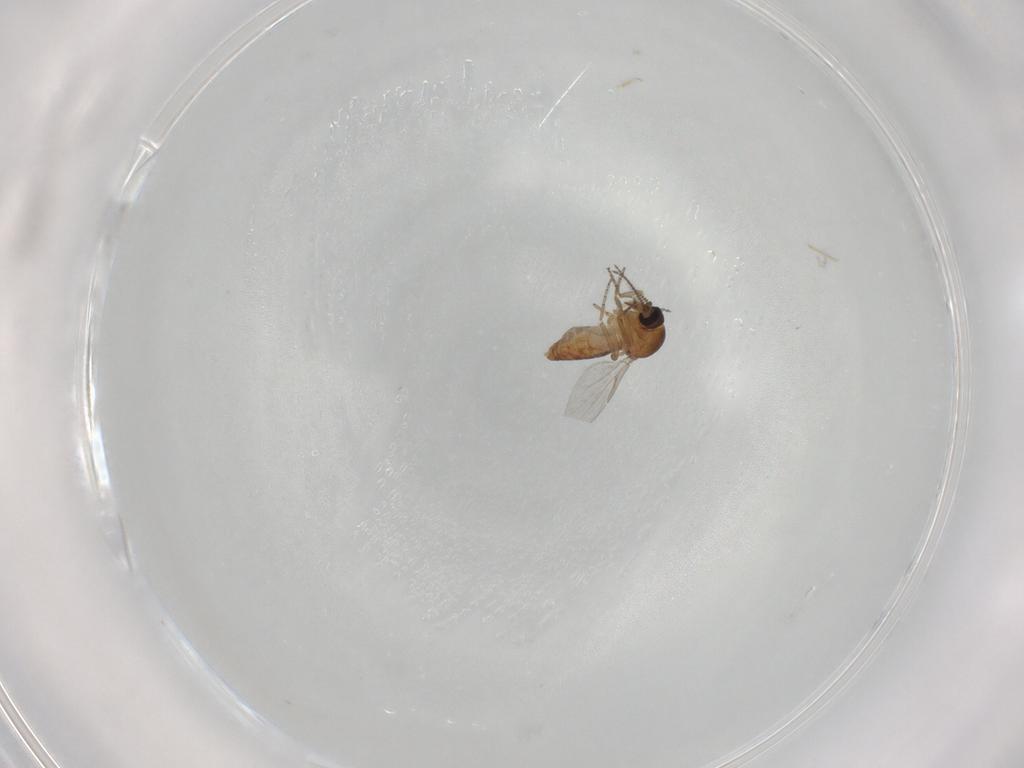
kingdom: Animalia
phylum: Arthropoda
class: Insecta
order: Diptera
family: Ceratopogonidae
